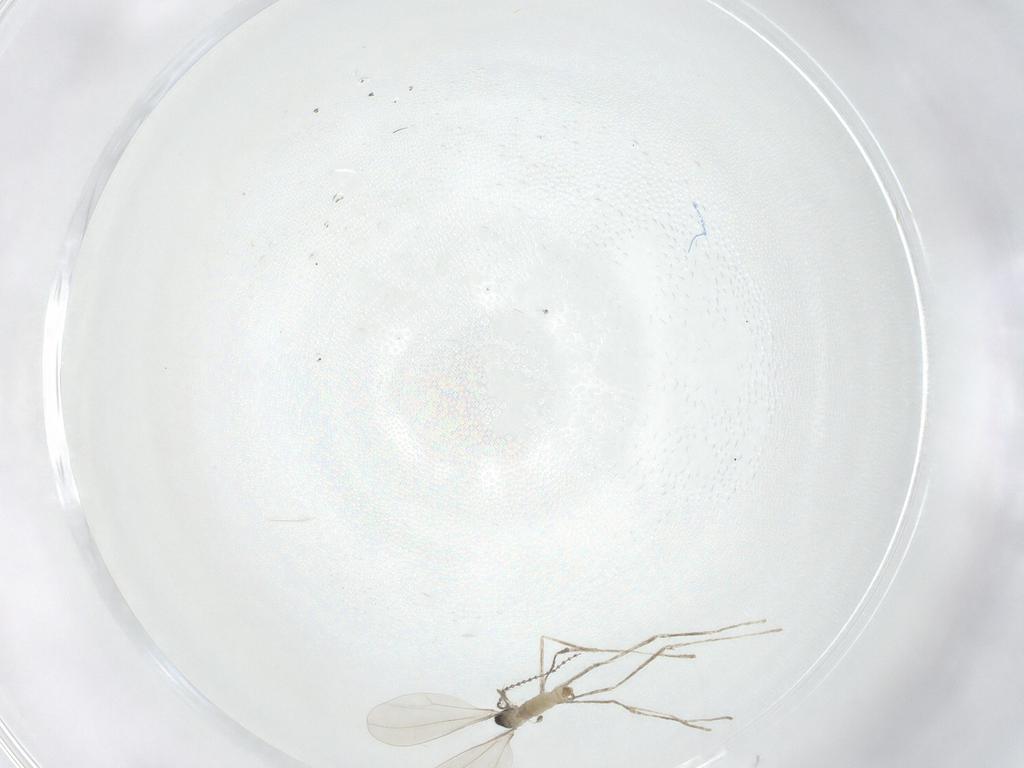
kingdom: Animalia
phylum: Arthropoda
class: Insecta
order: Diptera
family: Cecidomyiidae
